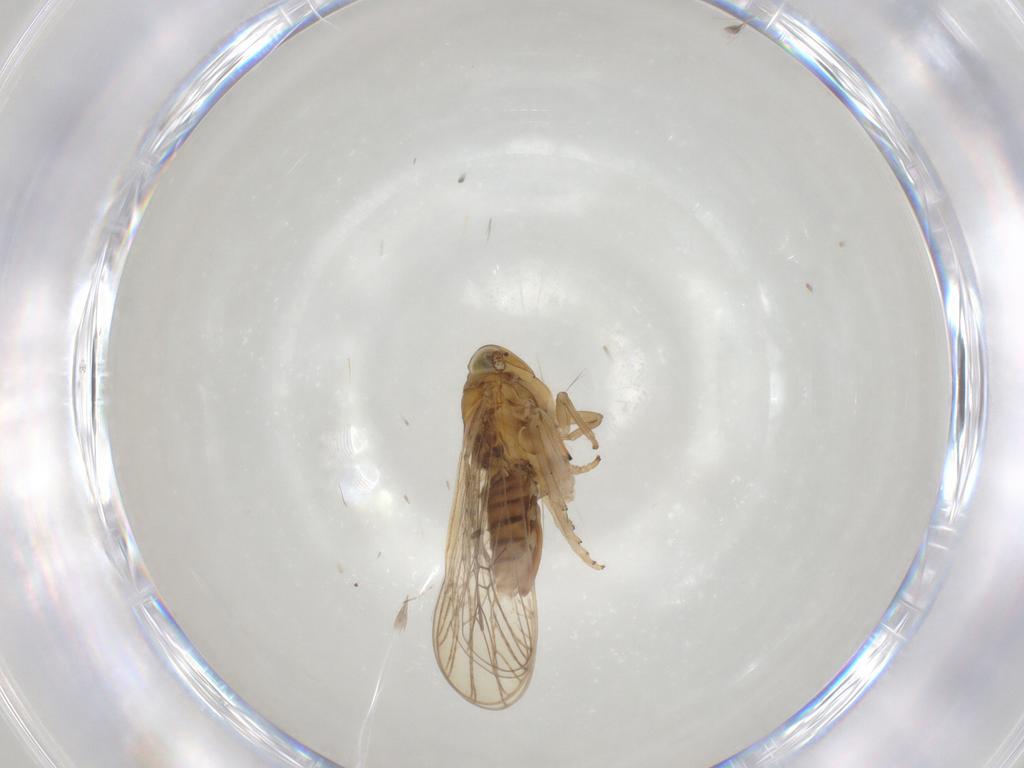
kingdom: Animalia
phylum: Arthropoda
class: Insecta
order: Hemiptera
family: Delphacidae
